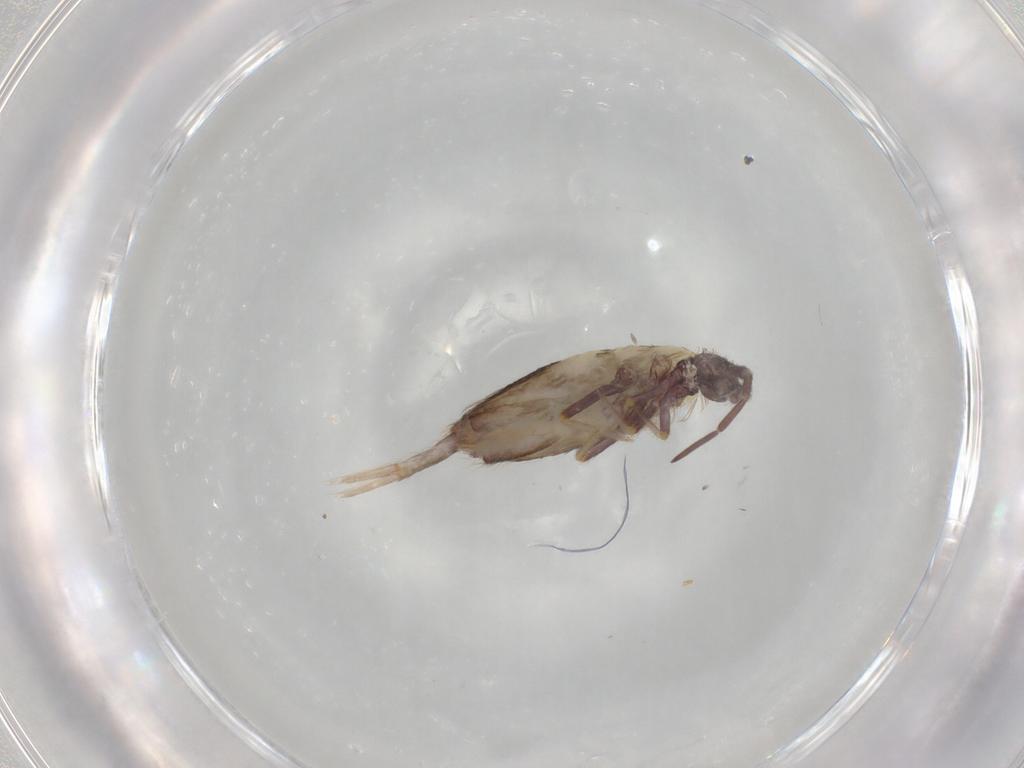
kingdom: Animalia
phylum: Arthropoda
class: Collembola
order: Entomobryomorpha
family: Entomobryidae
